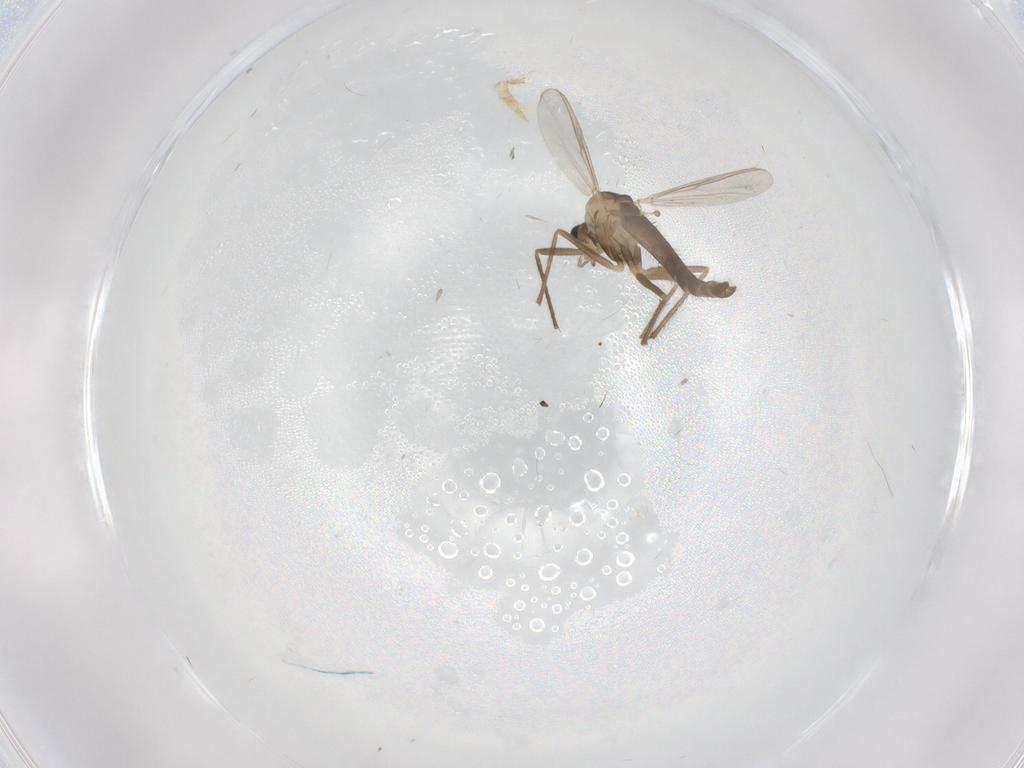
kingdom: Animalia
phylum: Arthropoda
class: Insecta
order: Diptera
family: Chironomidae
